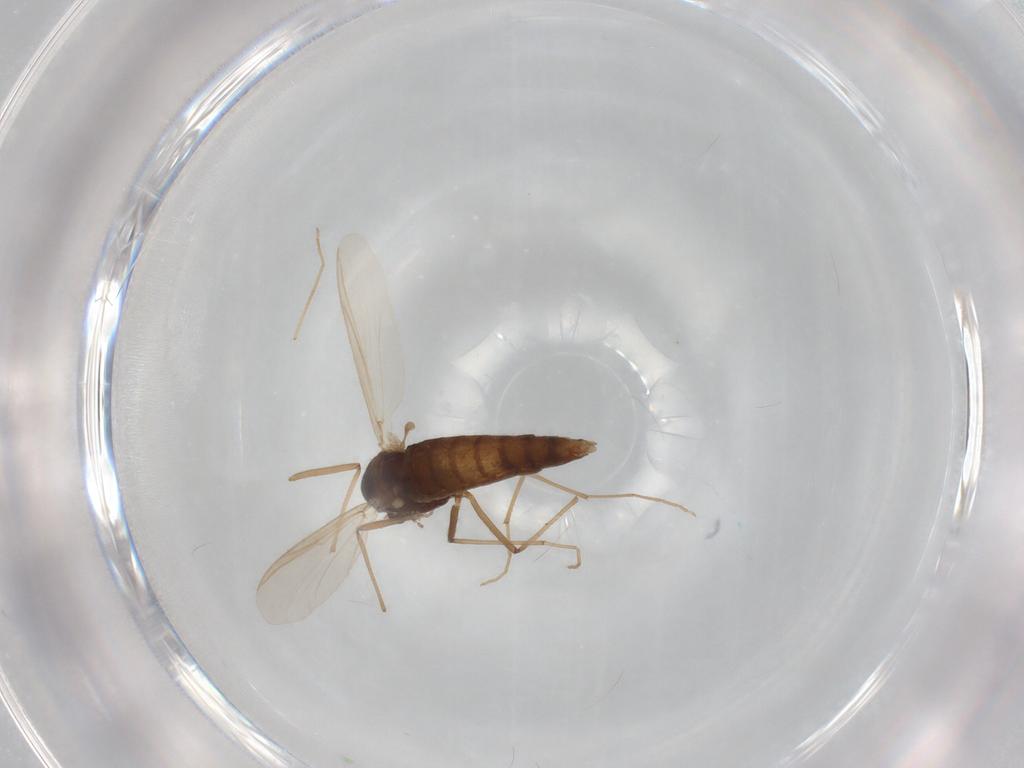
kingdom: Animalia
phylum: Arthropoda
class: Insecta
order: Diptera
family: Chironomidae
